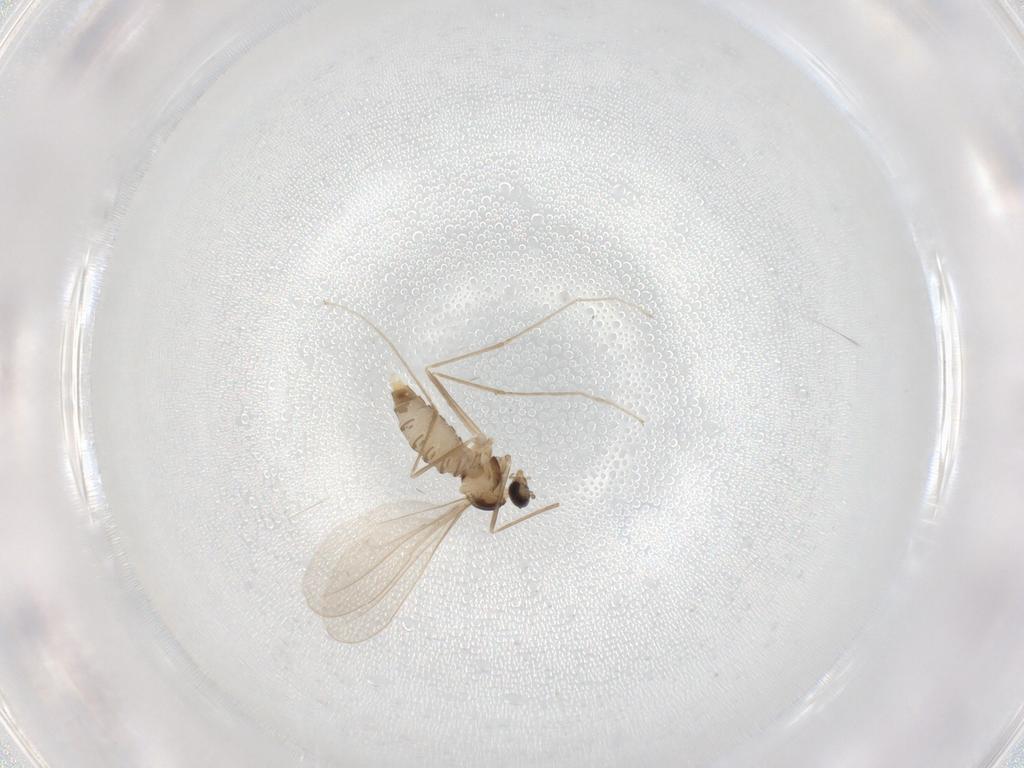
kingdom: Animalia
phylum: Arthropoda
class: Insecta
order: Diptera
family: Cecidomyiidae
